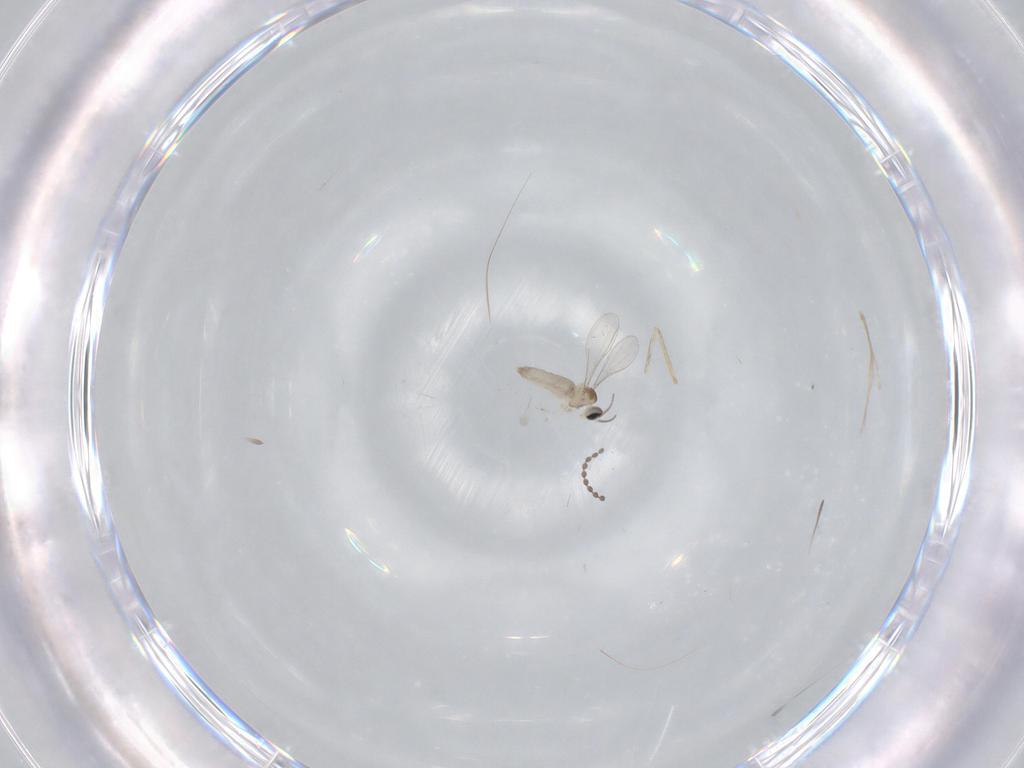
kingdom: Animalia
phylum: Arthropoda
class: Insecta
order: Diptera
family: Cecidomyiidae
